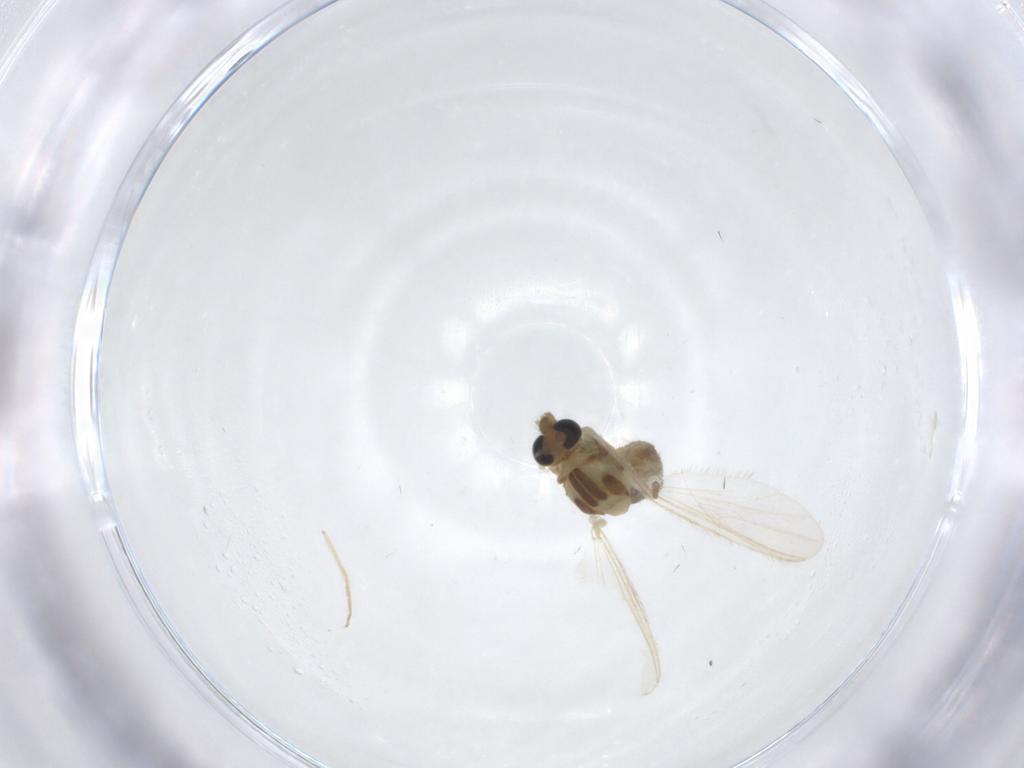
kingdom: Animalia
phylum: Arthropoda
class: Insecta
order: Diptera
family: Chironomidae
